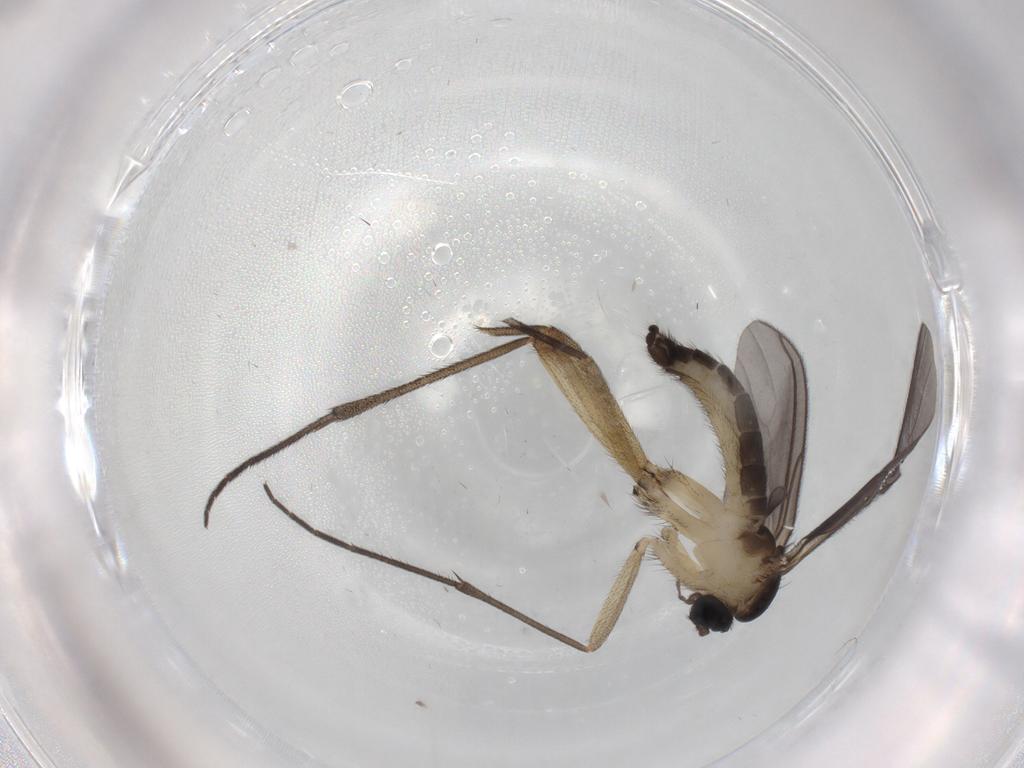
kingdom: Animalia
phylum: Arthropoda
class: Insecta
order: Diptera
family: Sciaridae
